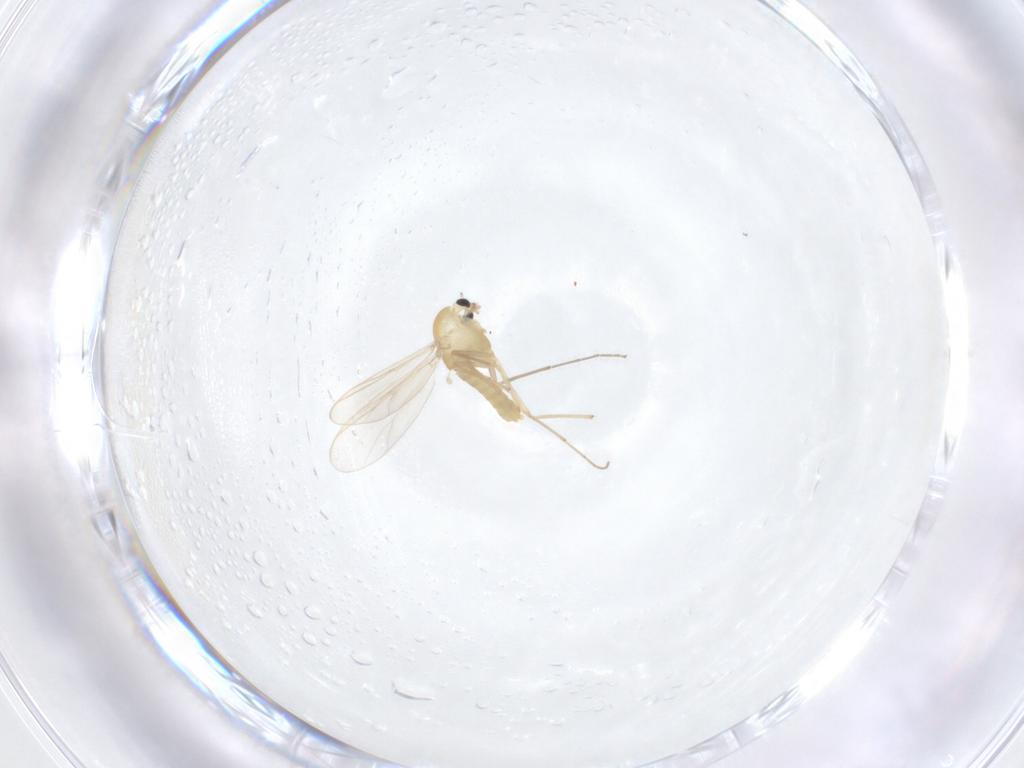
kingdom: Animalia
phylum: Arthropoda
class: Insecta
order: Diptera
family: Chironomidae
